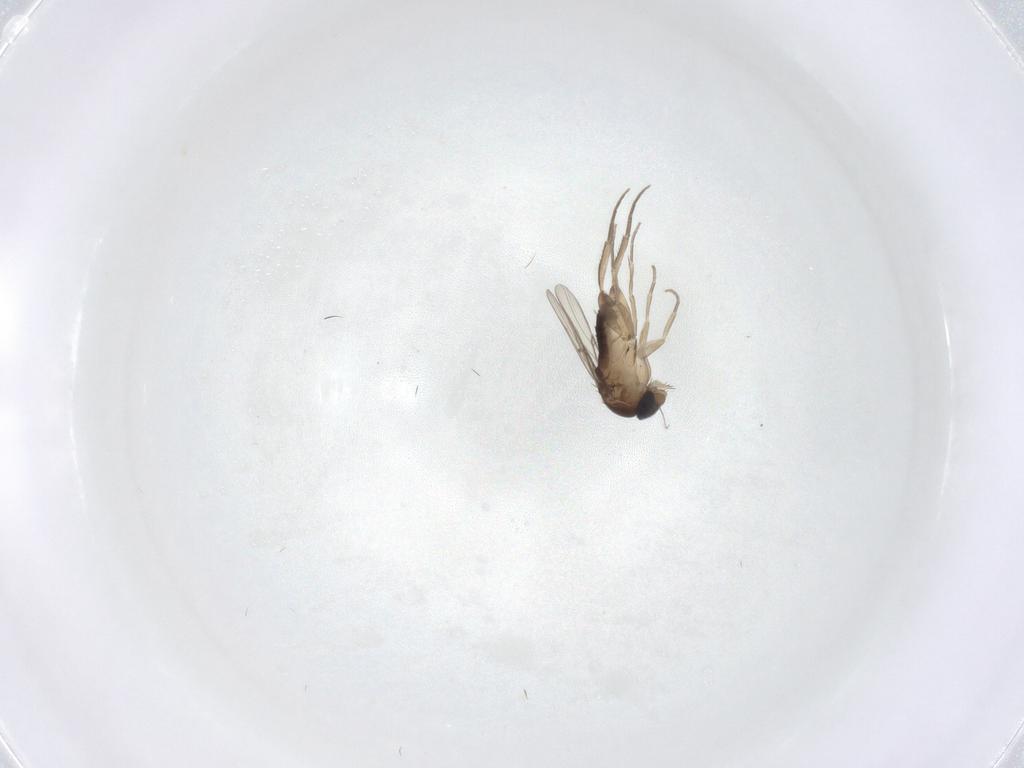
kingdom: Animalia
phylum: Arthropoda
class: Insecta
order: Diptera
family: Phoridae
